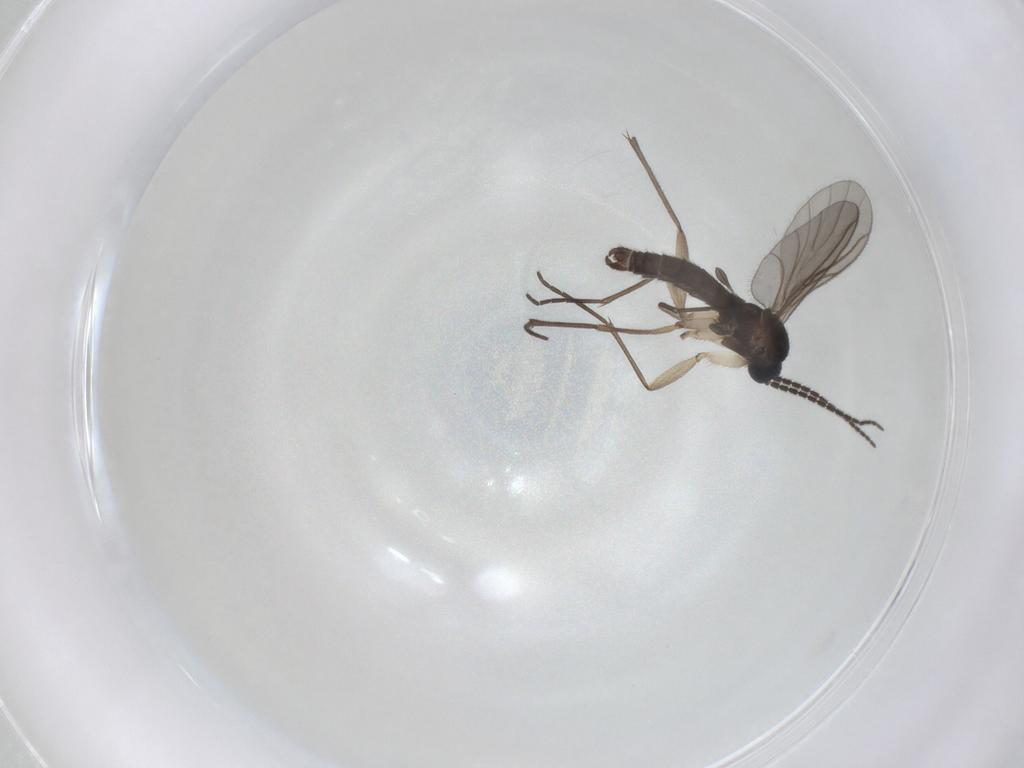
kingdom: Animalia
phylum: Arthropoda
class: Insecta
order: Diptera
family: Sciaridae
